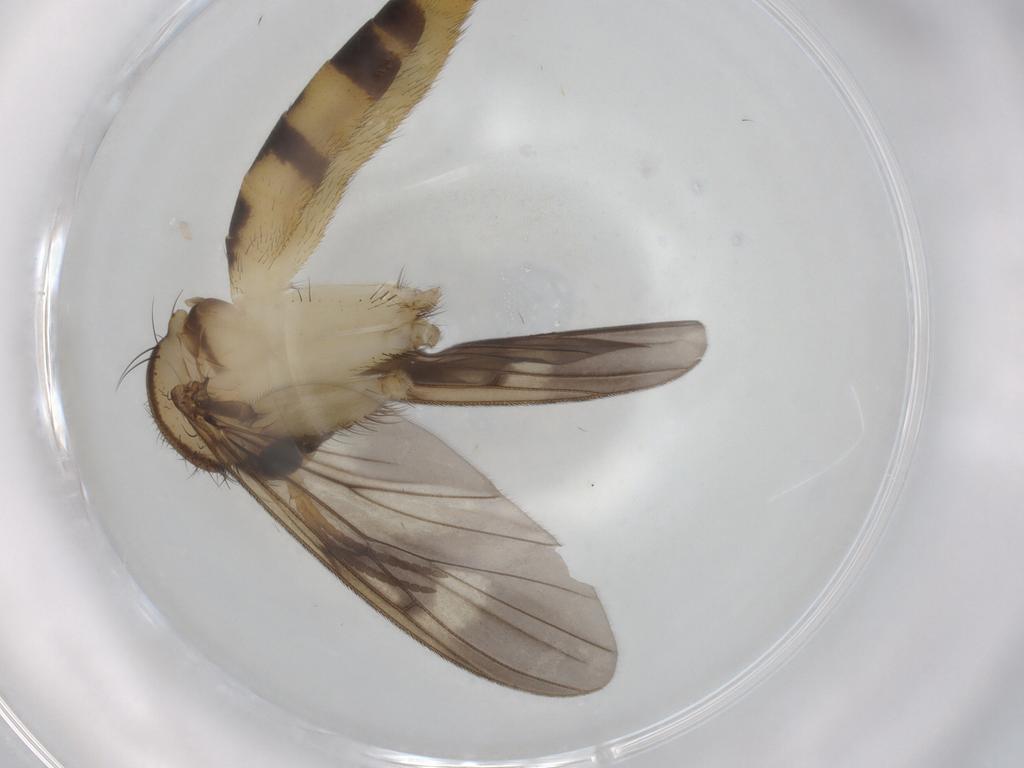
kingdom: Animalia
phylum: Arthropoda
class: Insecta
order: Diptera
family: Mycetophilidae
